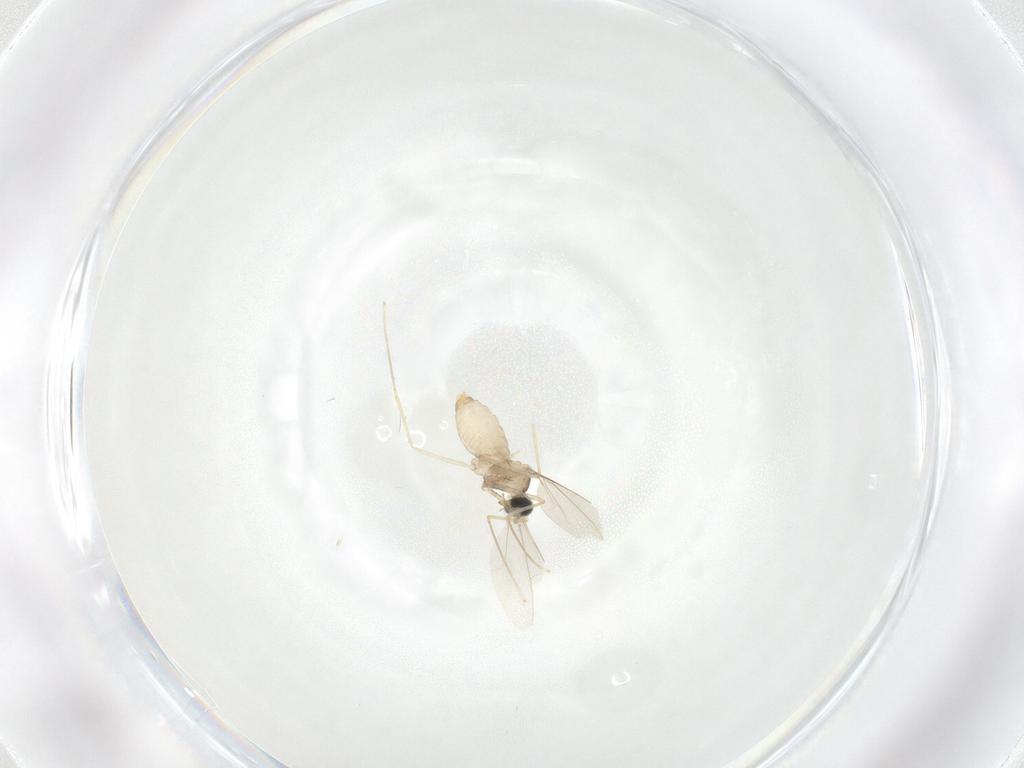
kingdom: Animalia
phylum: Arthropoda
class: Insecta
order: Diptera
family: Cecidomyiidae
